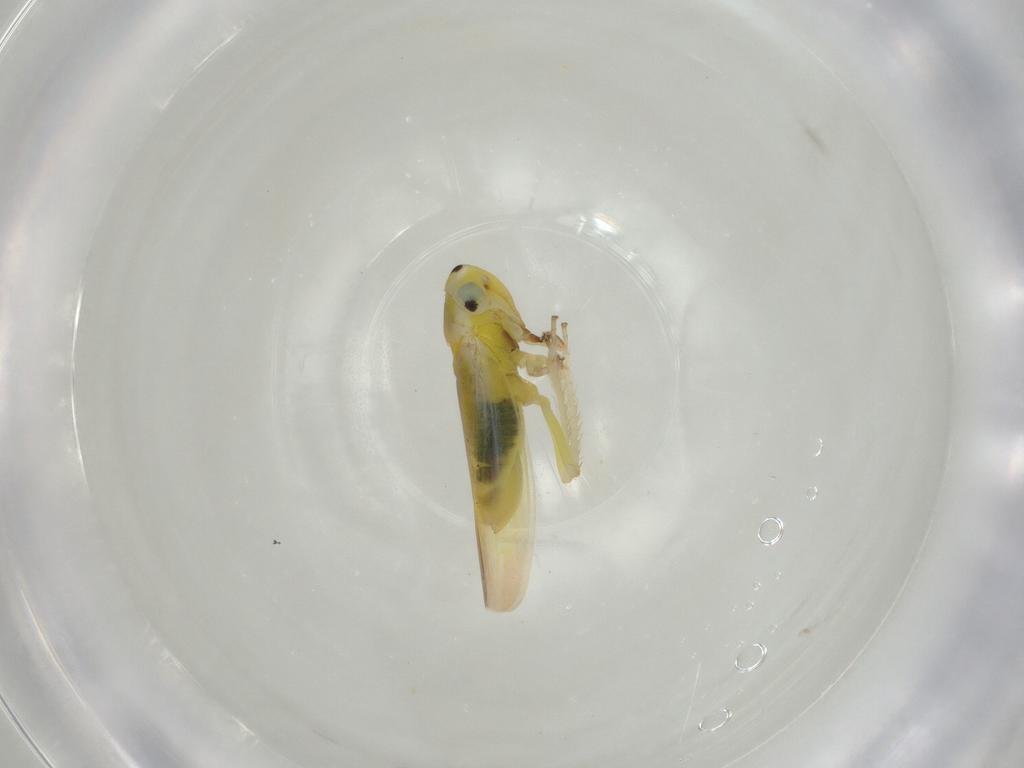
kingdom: Animalia
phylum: Arthropoda
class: Insecta
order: Hemiptera
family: Cicadellidae
